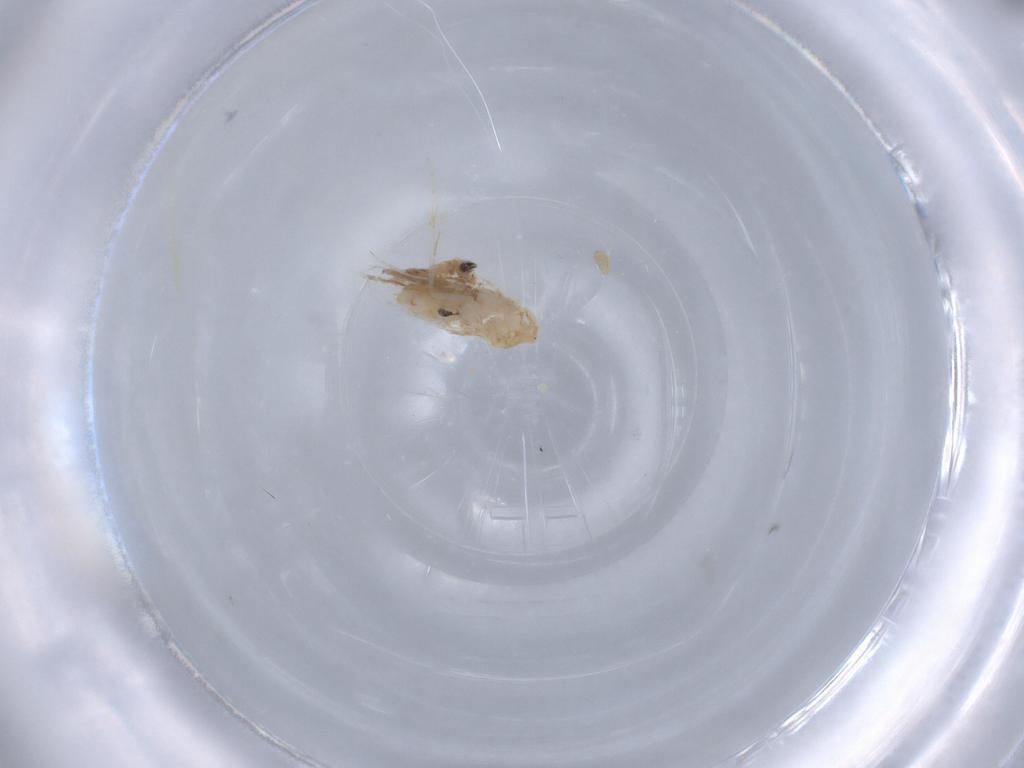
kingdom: Animalia
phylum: Arthropoda
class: Insecta
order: Lepidoptera
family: Nepticulidae
